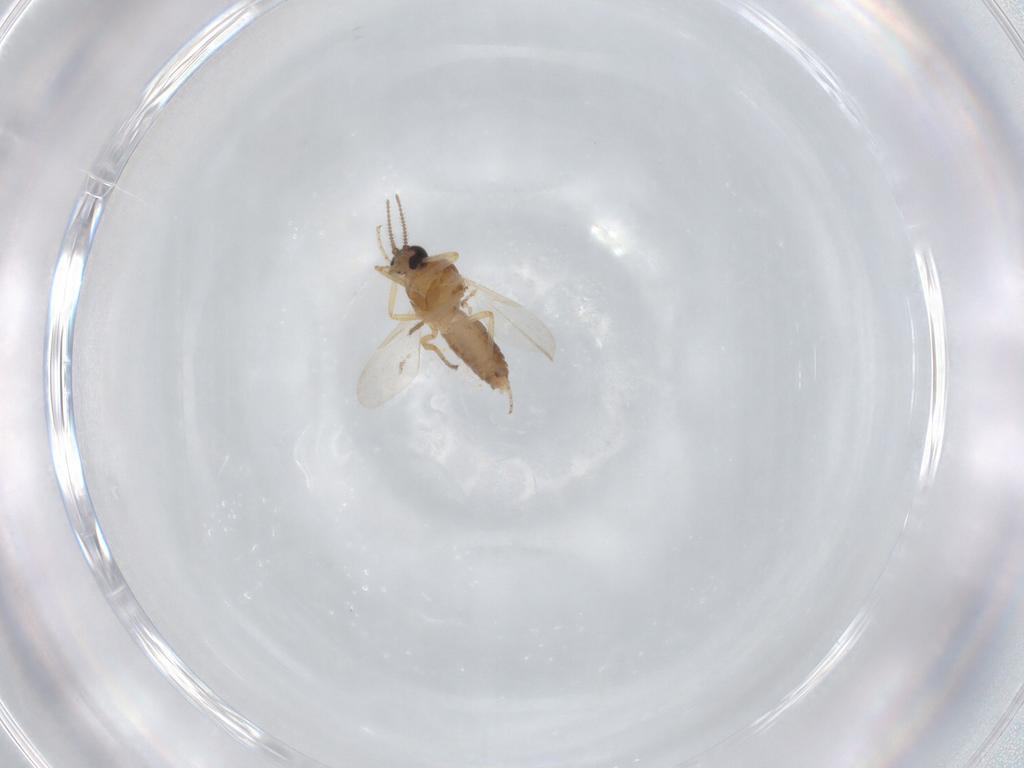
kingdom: Animalia
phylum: Arthropoda
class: Insecta
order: Diptera
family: Ceratopogonidae
